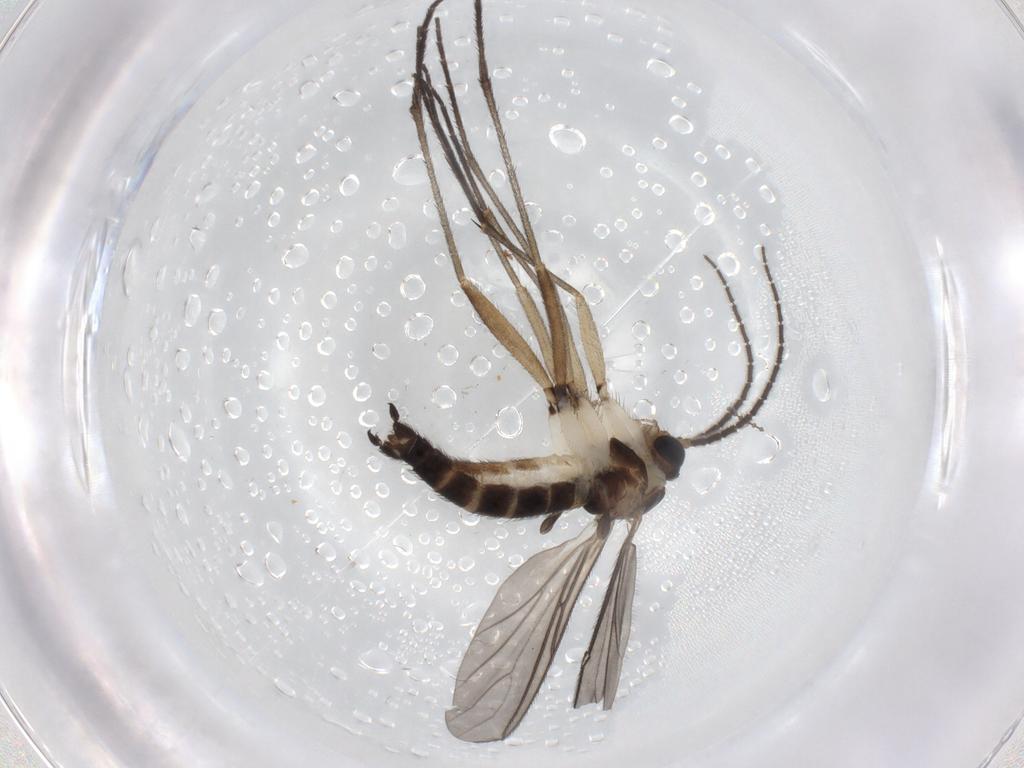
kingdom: Animalia
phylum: Arthropoda
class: Insecta
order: Diptera
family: Sciaridae
